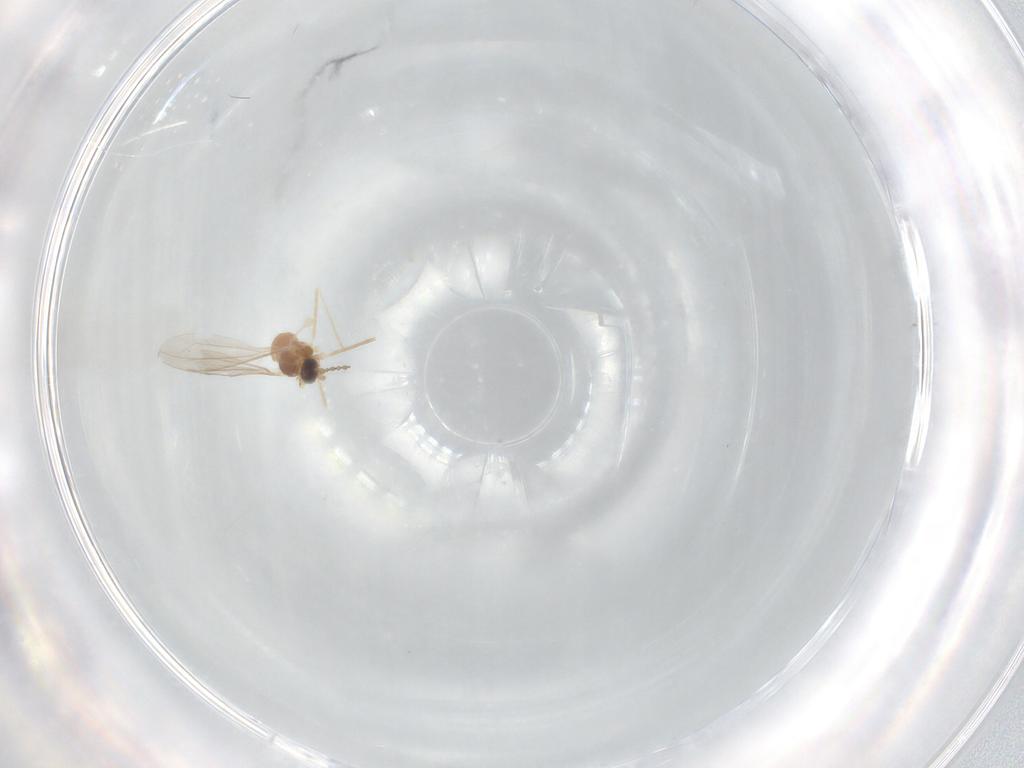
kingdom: Animalia
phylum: Arthropoda
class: Insecta
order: Diptera
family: Cecidomyiidae
